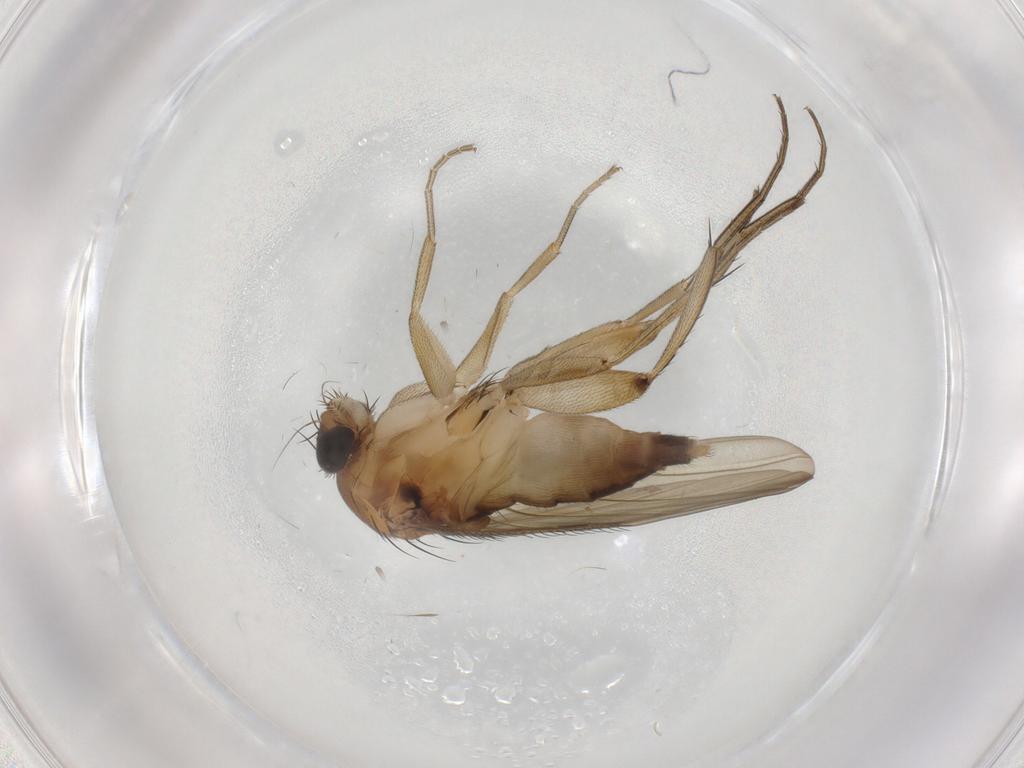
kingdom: Animalia
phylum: Arthropoda
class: Insecta
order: Diptera
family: Phoridae
